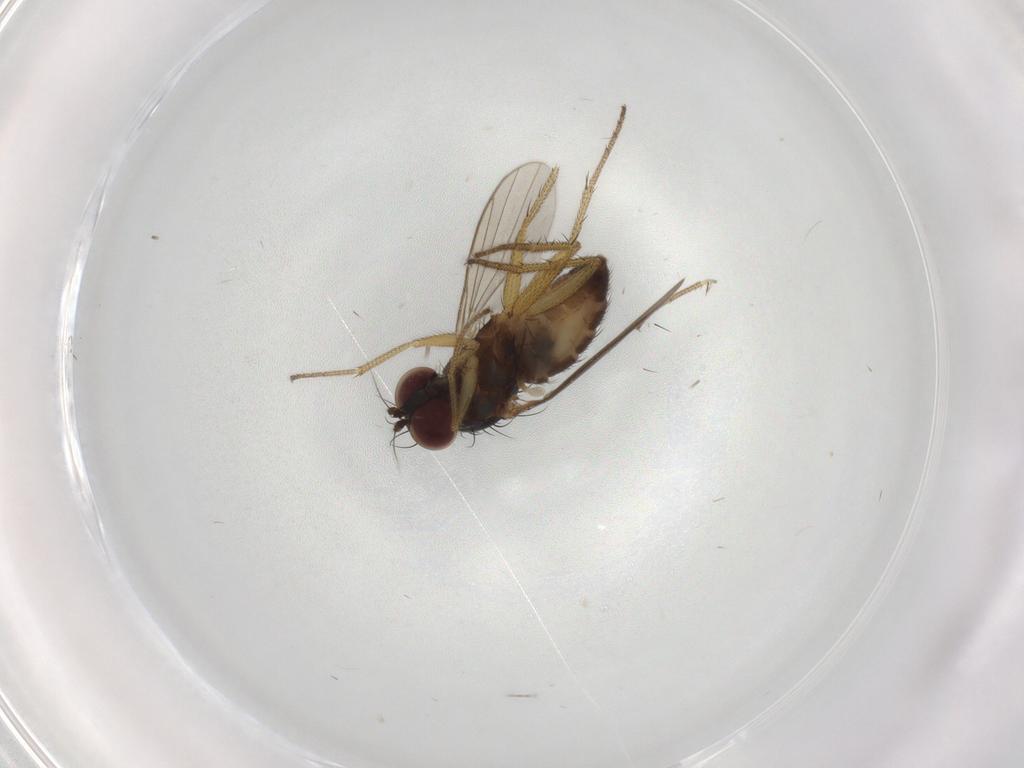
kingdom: Animalia
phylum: Arthropoda
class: Insecta
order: Diptera
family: Dolichopodidae
